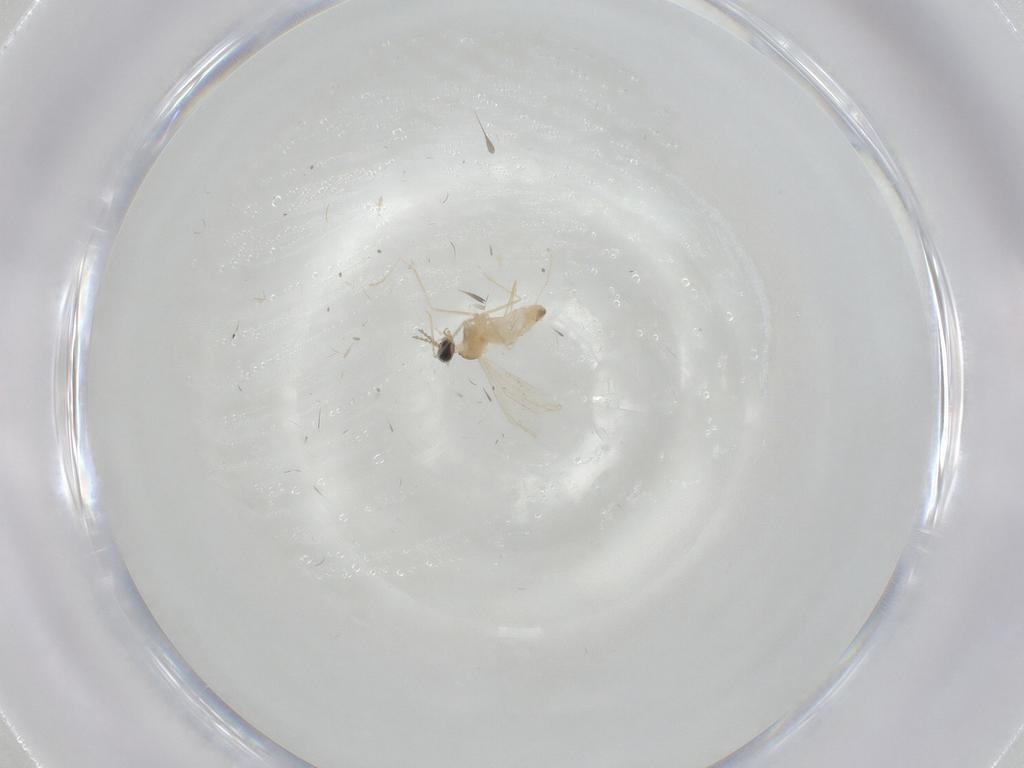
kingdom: Animalia
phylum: Arthropoda
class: Insecta
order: Diptera
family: Cecidomyiidae
